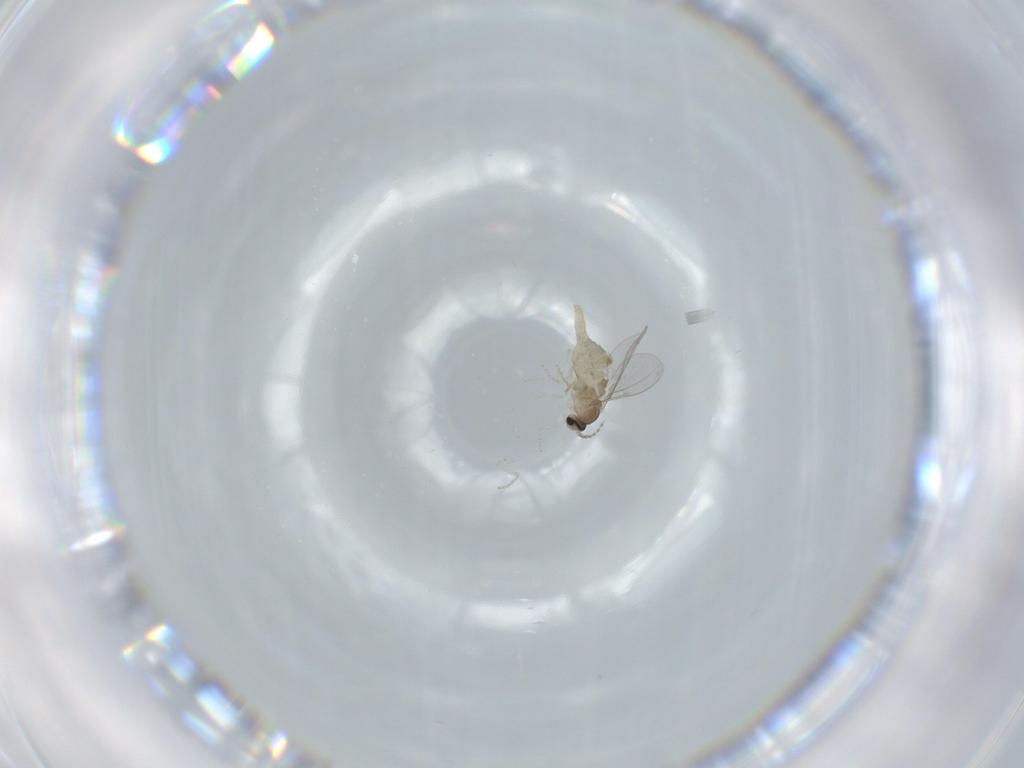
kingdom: Animalia
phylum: Arthropoda
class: Insecta
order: Diptera
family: Cecidomyiidae
